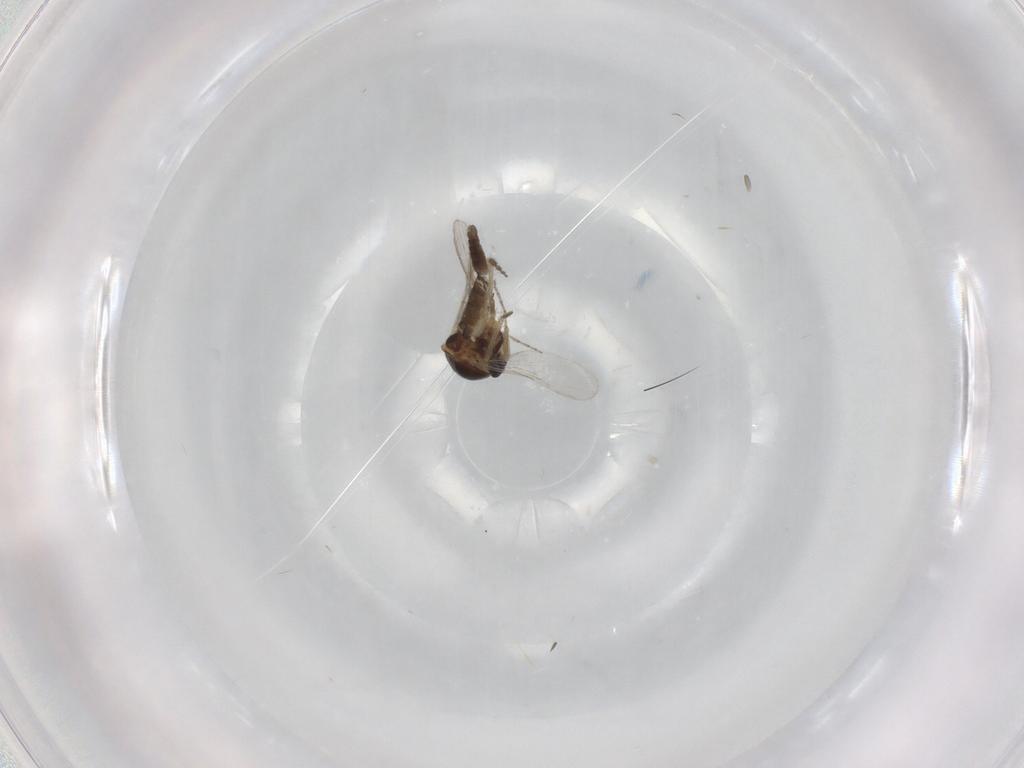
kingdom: Animalia
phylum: Arthropoda
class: Insecta
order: Diptera
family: Ceratopogonidae
